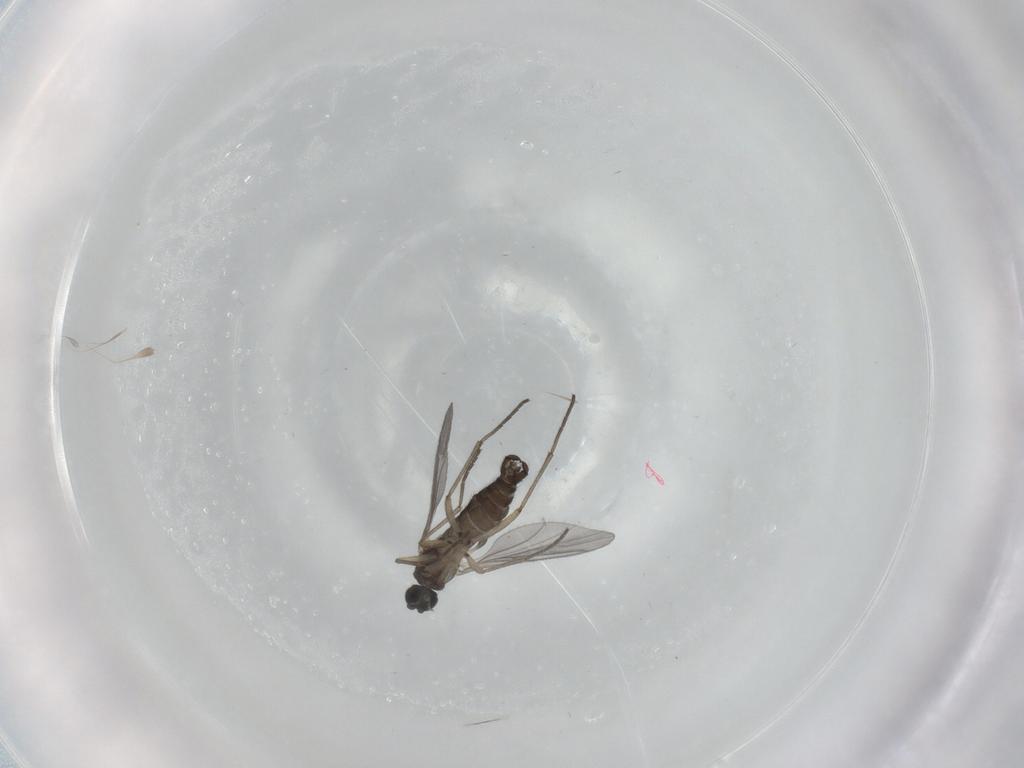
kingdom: Animalia
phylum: Arthropoda
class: Insecta
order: Diptera
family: Sciaridae
